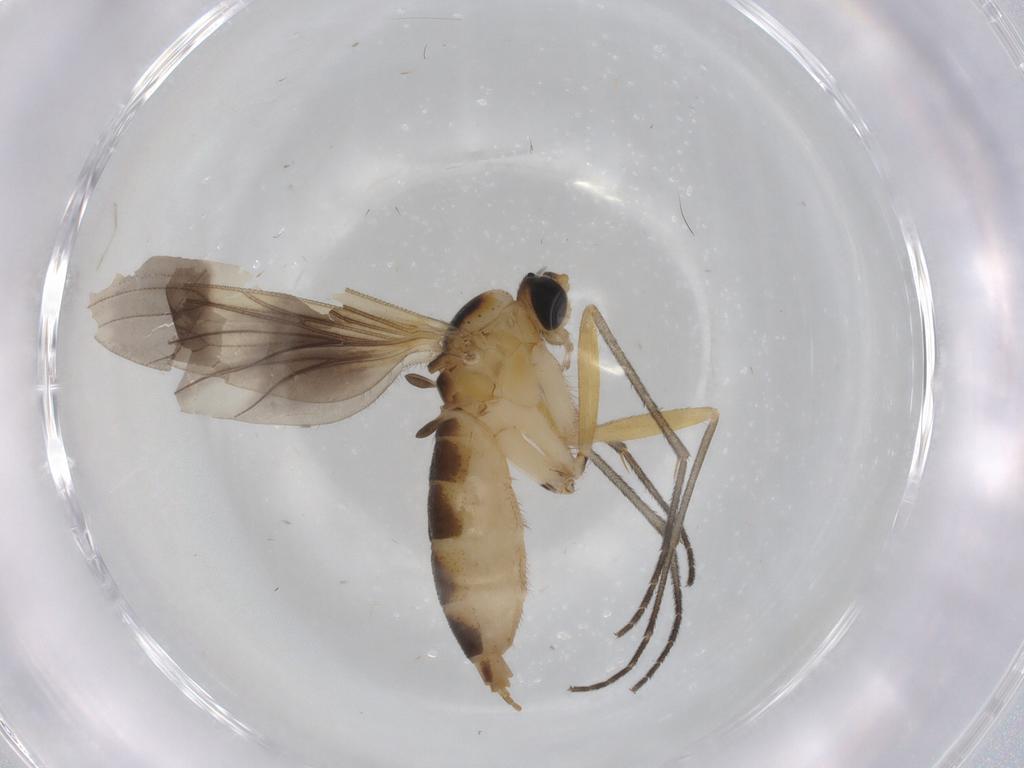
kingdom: Animalia
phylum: Arthropoda
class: Insecta
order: Diptera
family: Sciaridae
